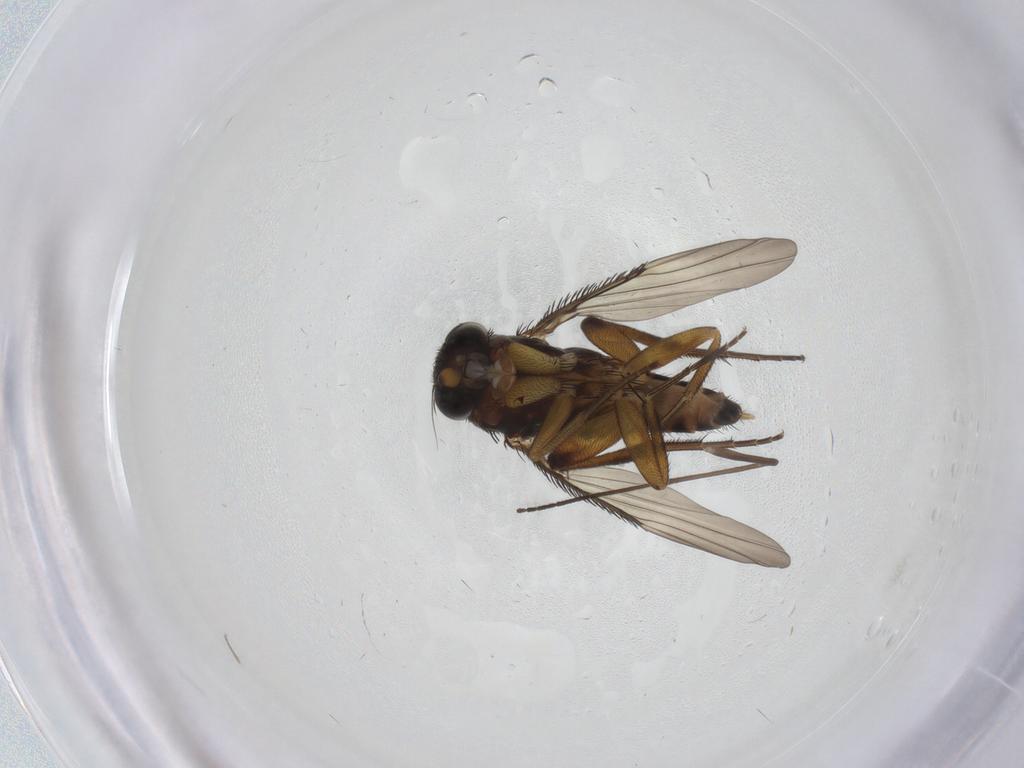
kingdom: Animalia
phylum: Arthropoda
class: Insecta
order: Diptera
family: Phoridae
